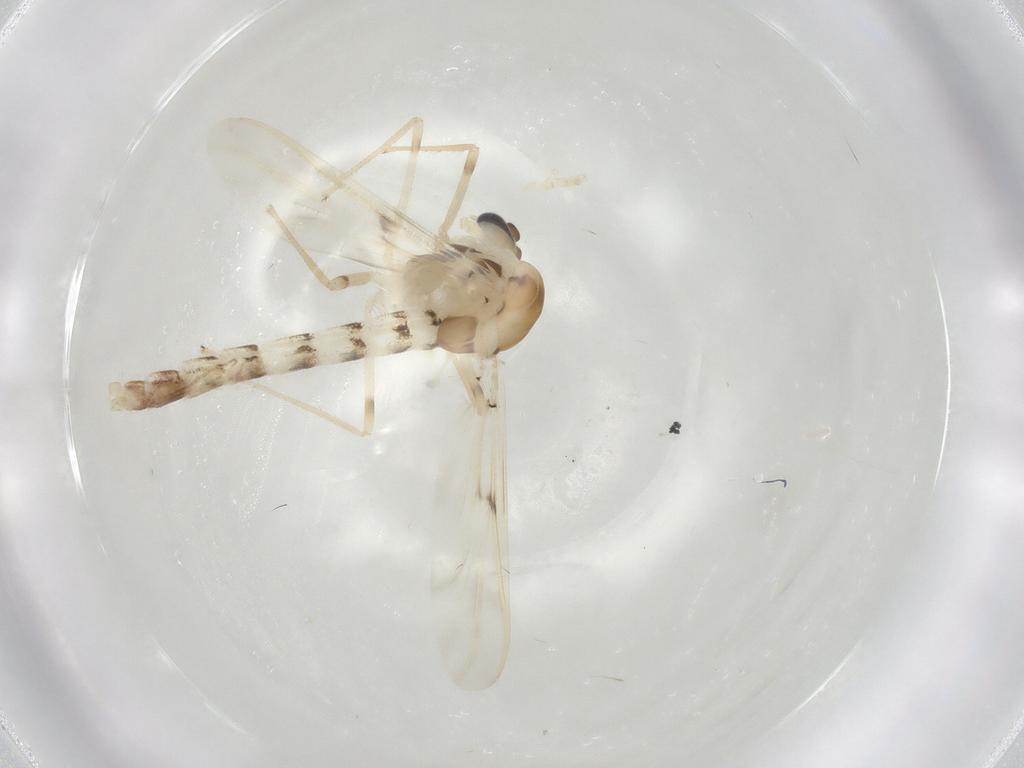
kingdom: Animalia
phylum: Arthropoda
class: Insecta
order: Diptera
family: Chironomidae
